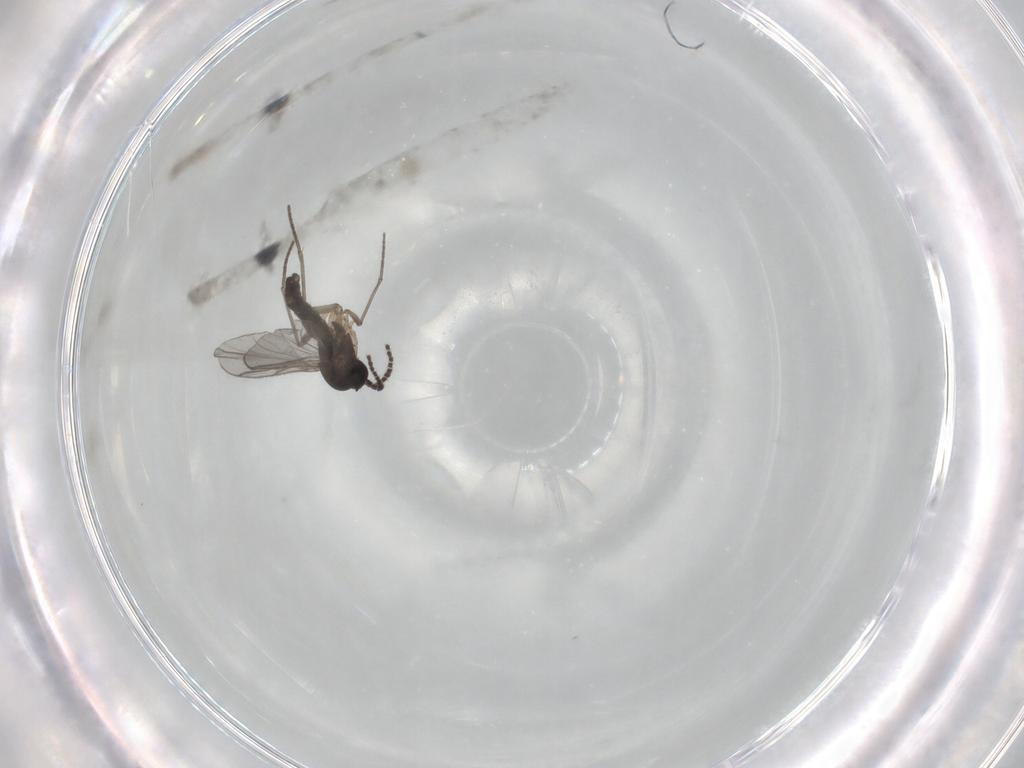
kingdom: Animalia
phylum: Arthropoda
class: Insecta
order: Diptera
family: Sciaridae
